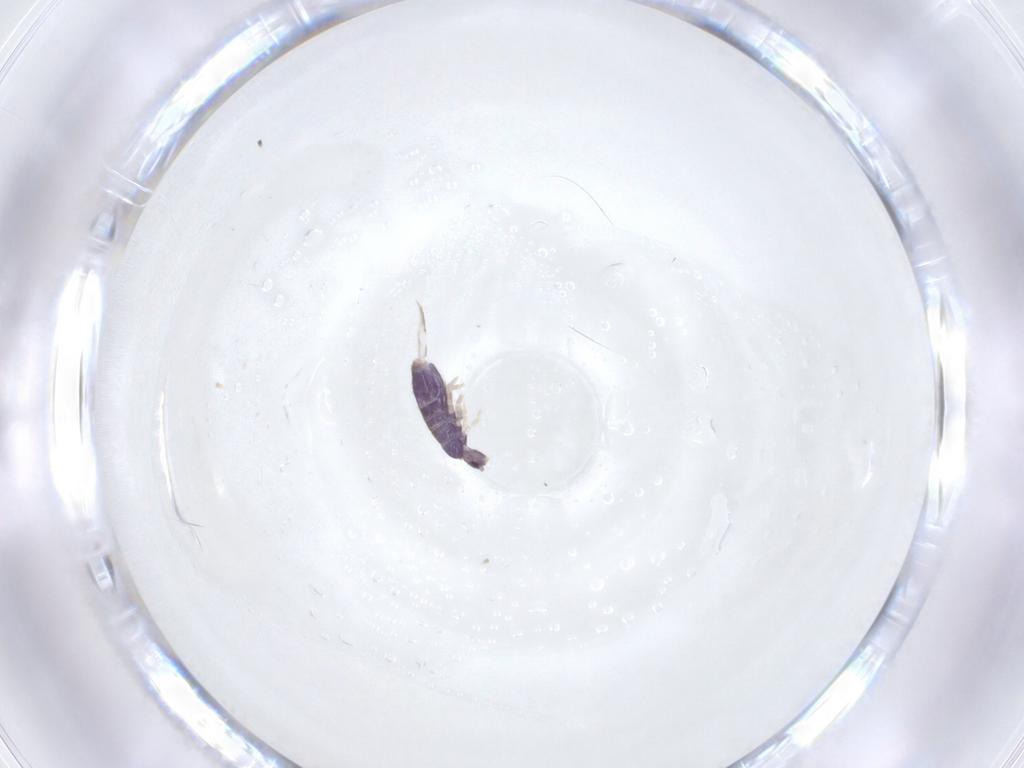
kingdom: Animalia
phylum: Arthropoda
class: Collembola
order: Entomobryomorpha
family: Entomobryidae
